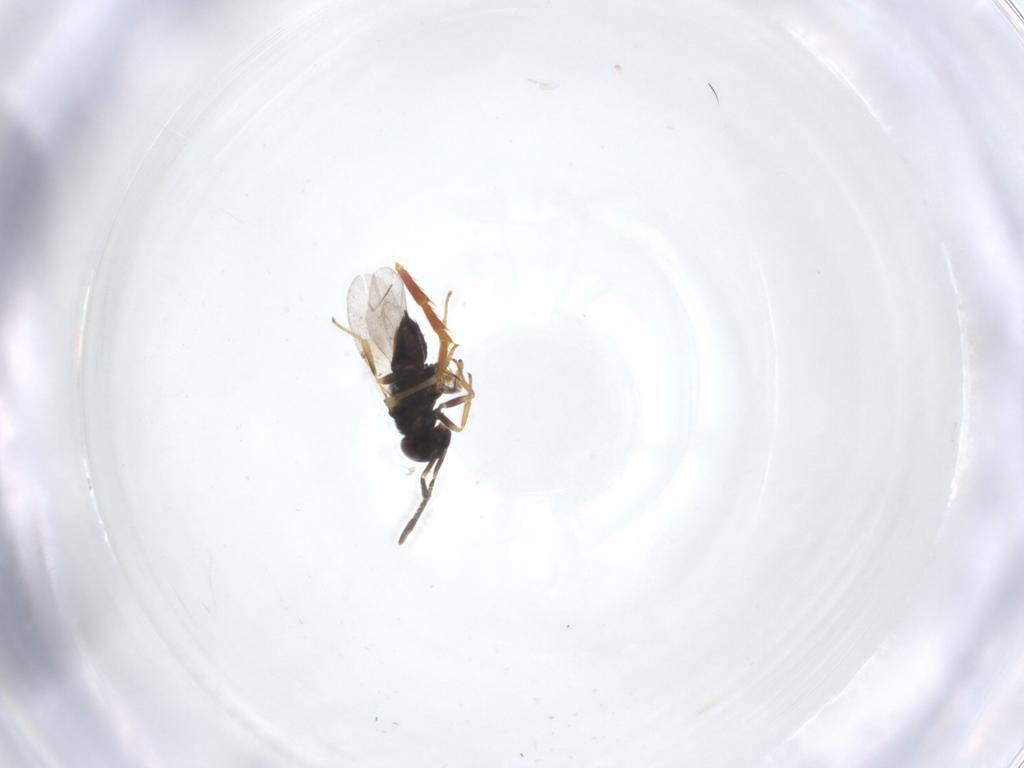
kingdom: Animalia
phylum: Arthropoda
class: Insecta
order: Hymenoptera
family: Encyrtidae
